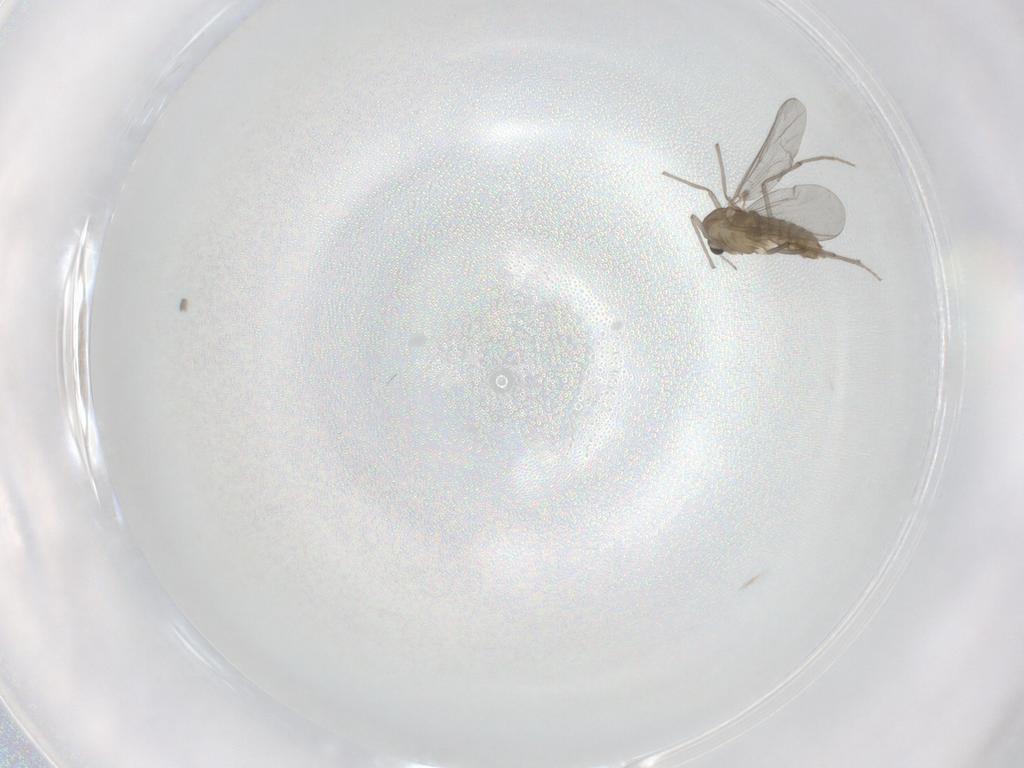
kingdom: Animalia
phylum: Arthropoda
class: Insecta
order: Diptera
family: Chironomidae
